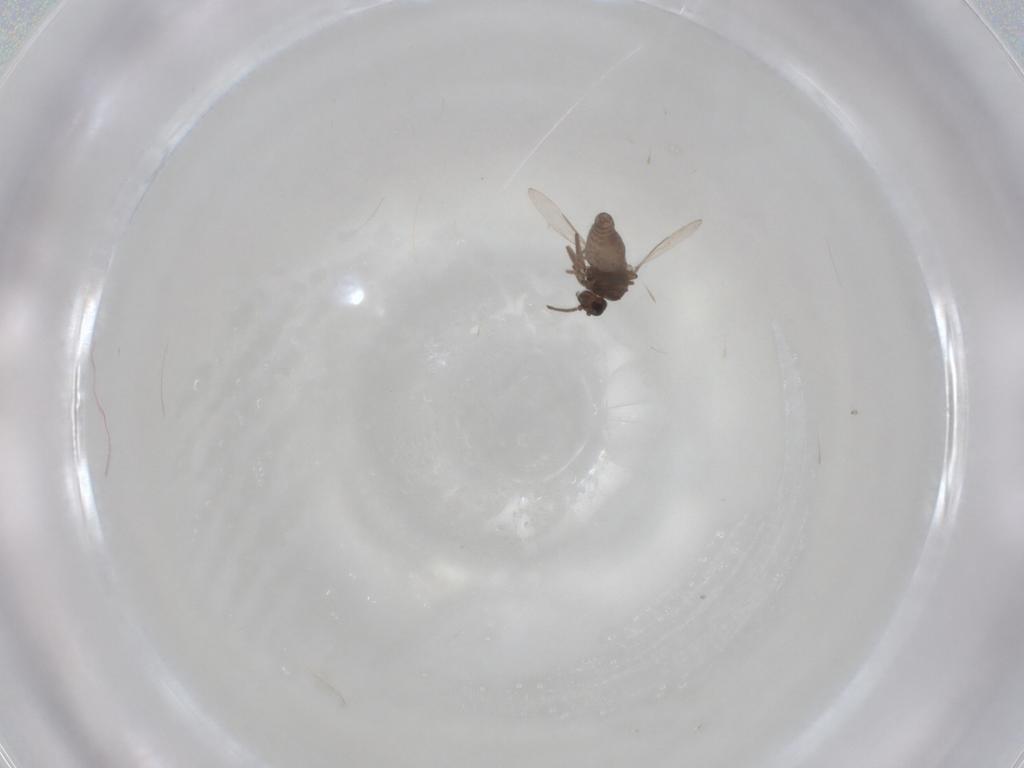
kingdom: Animalia
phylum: Arthropoda
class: Insecta
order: Diptera
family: Ceratopogonidae
